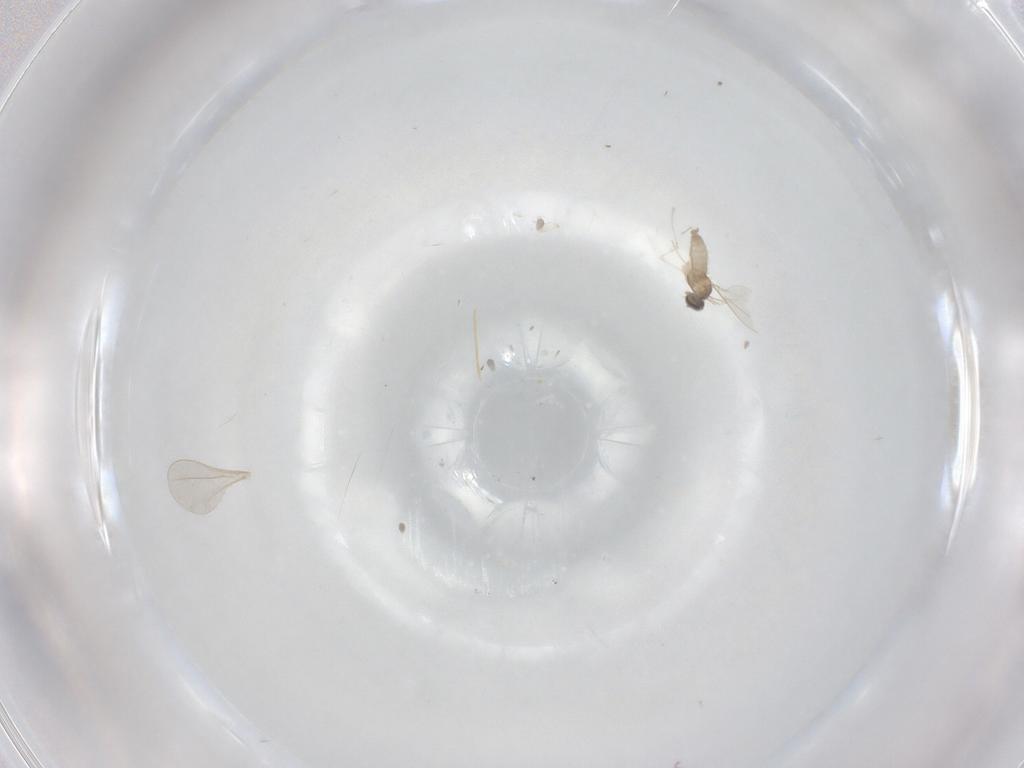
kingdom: Animalia
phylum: Arthropoda
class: Insecta
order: Diptera
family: Cecidomyiidae
